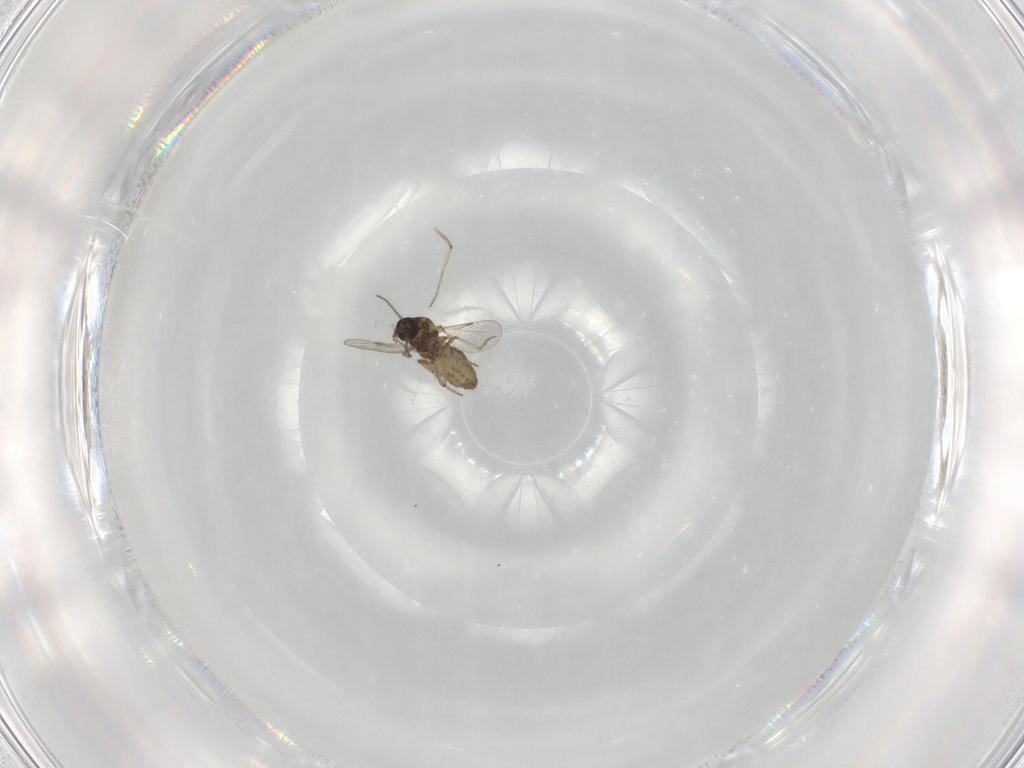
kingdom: Animalia
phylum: Arthropoda
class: Insecta
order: Diptera
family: Ceratopogonidae
